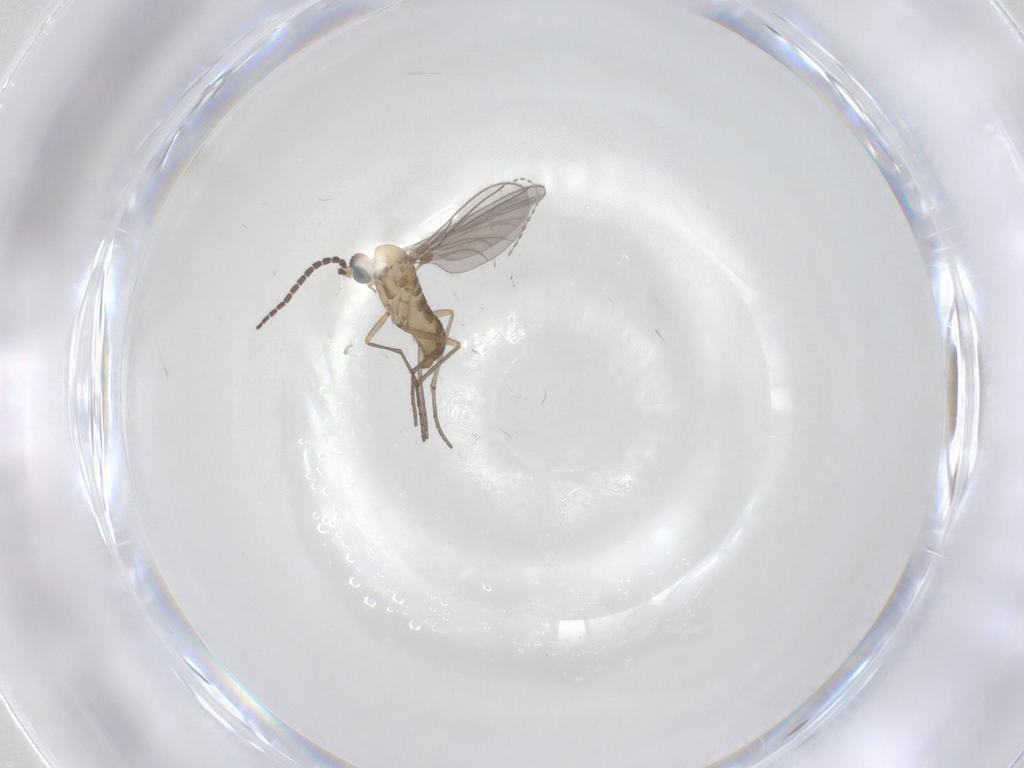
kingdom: Animalia
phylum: Arthropoda
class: Insecta
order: Diptera
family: Sciaridae
